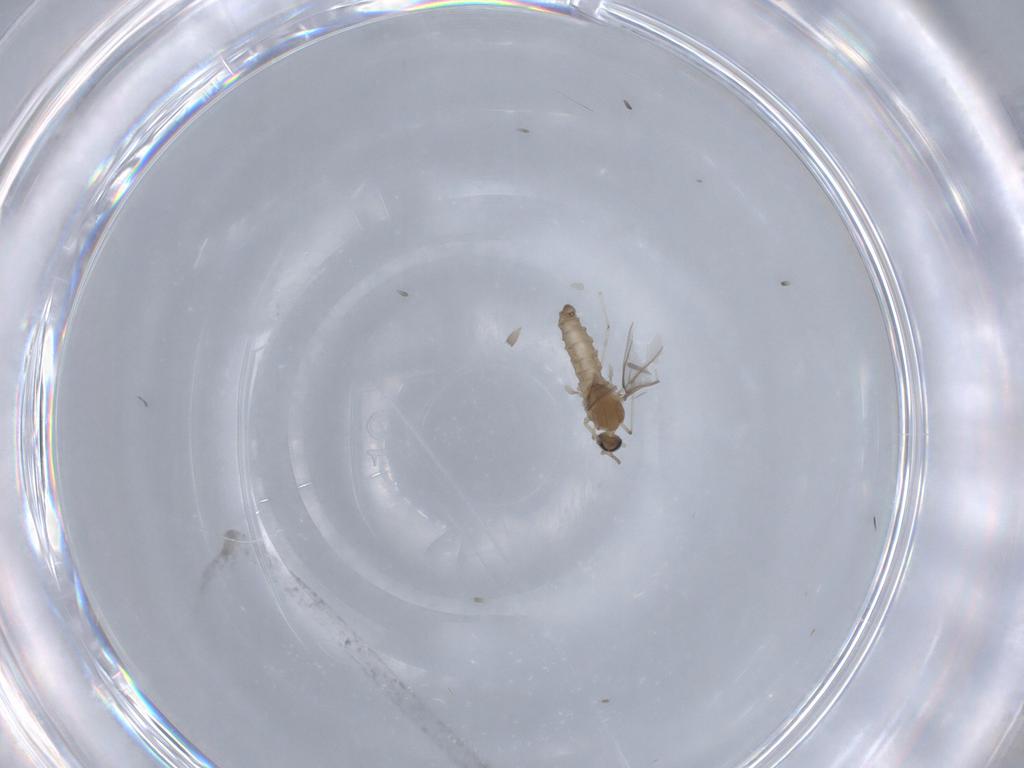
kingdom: Animalia
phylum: Arthropoda
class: Insecta
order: Diptera
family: Cecidomyiidae
